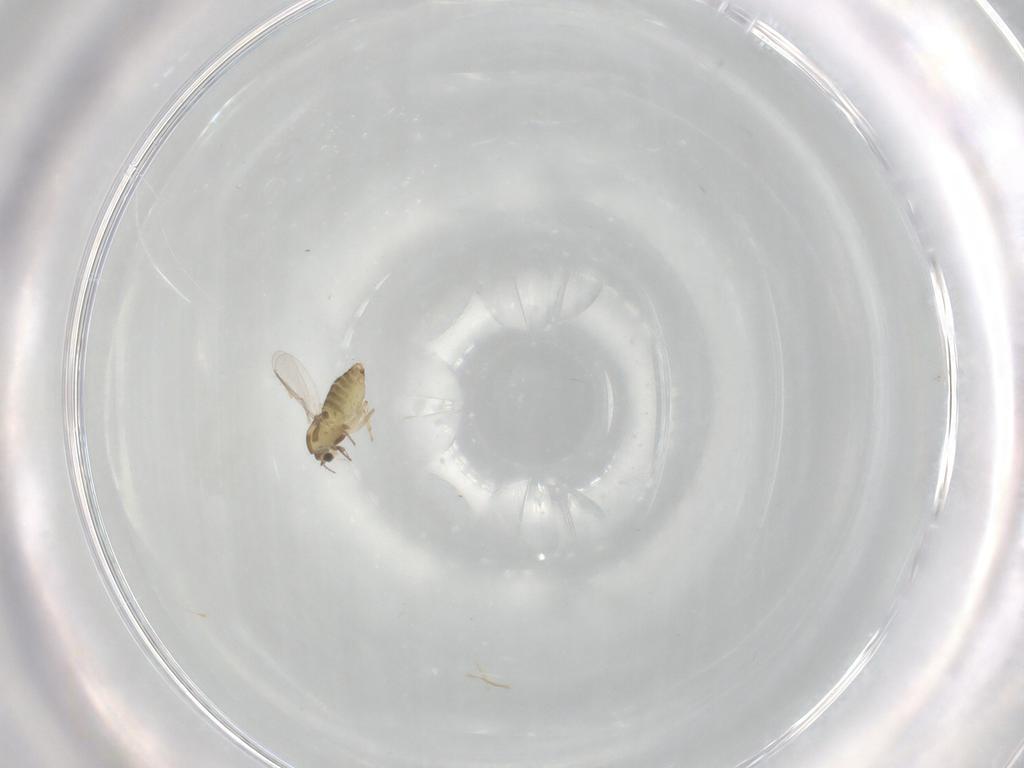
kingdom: Animalia
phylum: Arthropoda
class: Insecta
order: Diptera
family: Chironomidae
